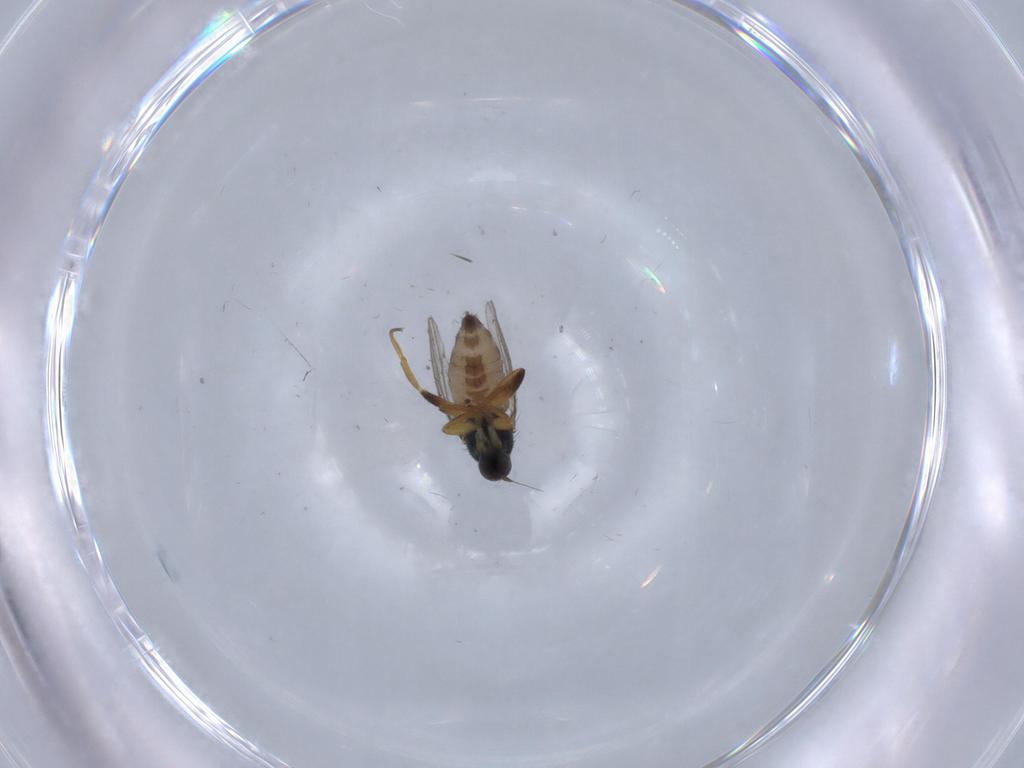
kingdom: Animalia
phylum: Arthropoda
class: Insecta
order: Diptera
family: Hybotidae
